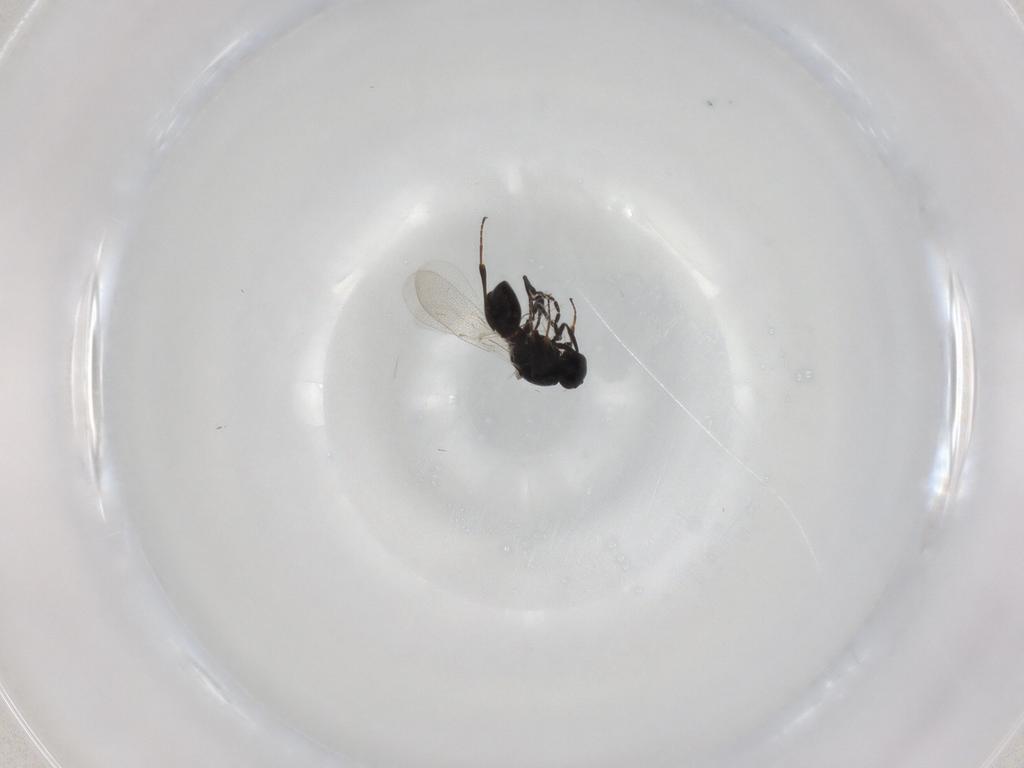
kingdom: Animalia
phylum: Arthropoda
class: Insecta
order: Hymenoptera
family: Platygastridae
